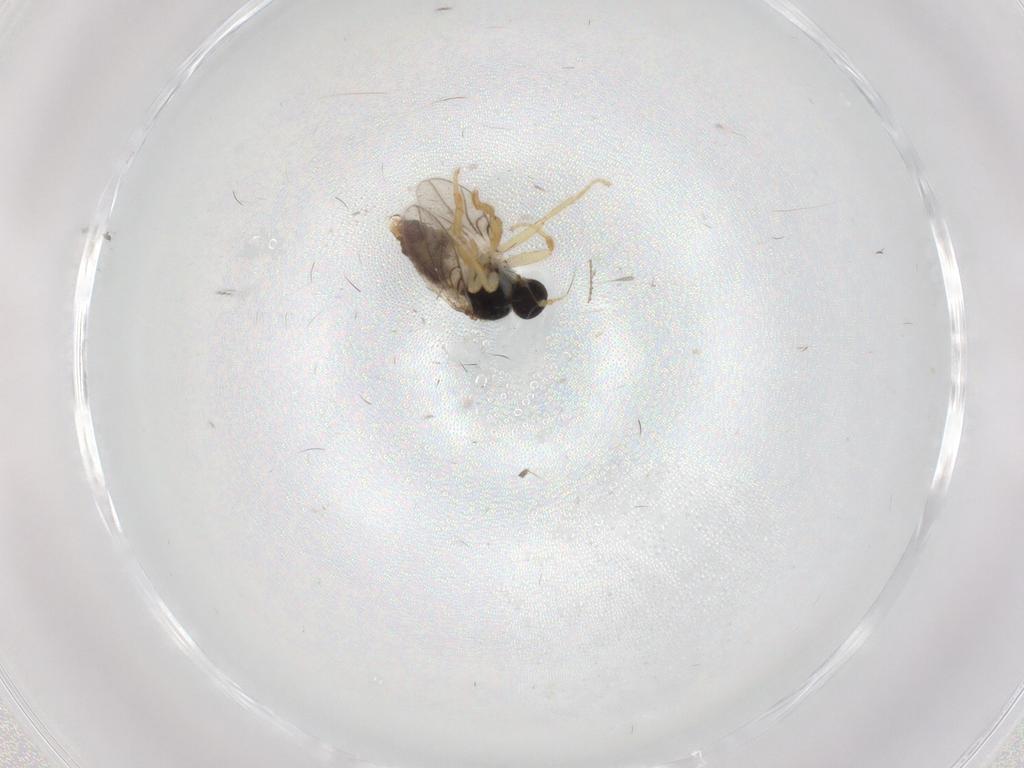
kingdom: Animalia
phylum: Arthropoda
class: Insecta
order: Diptera
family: Hybotidae
